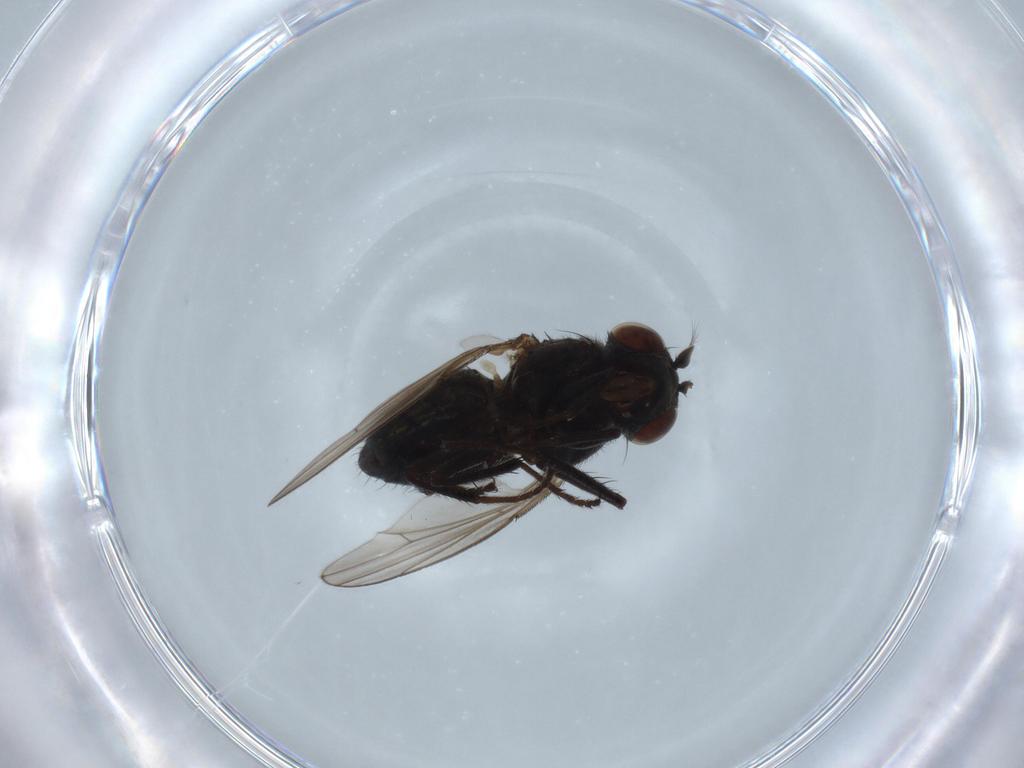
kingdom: Animalia
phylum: Arthropoda
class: Insecta
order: Diptera
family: Ephydridae
